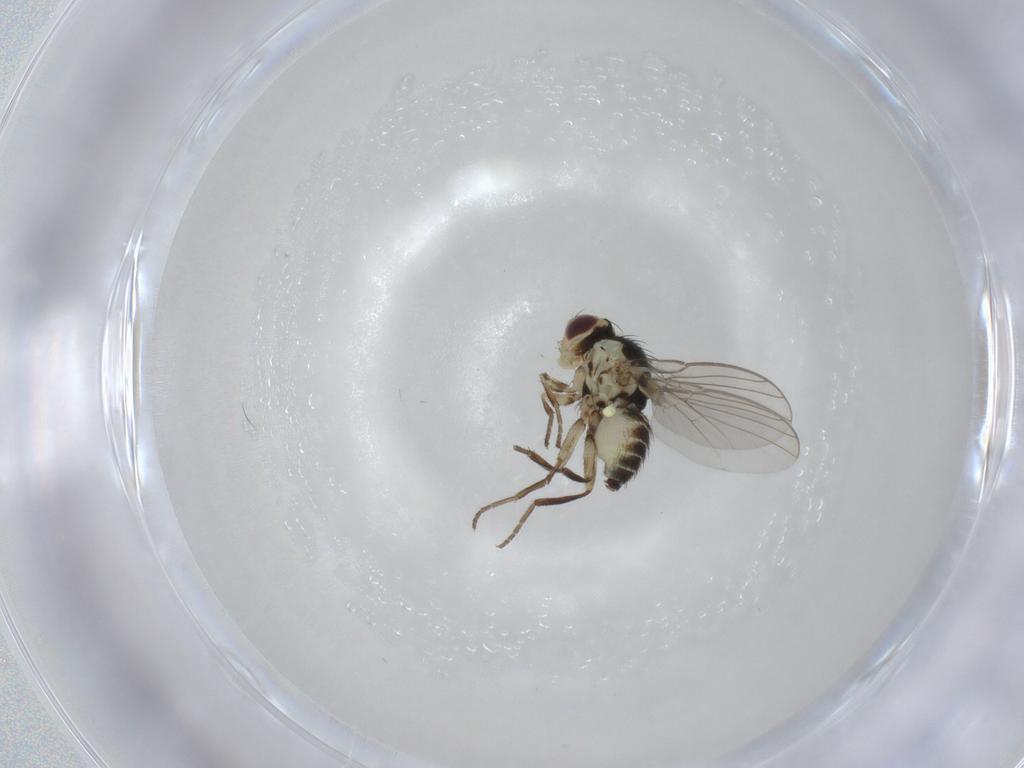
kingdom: Animalia
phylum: Arthropoda
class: Insecta
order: Diptera
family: Agromyzidae
